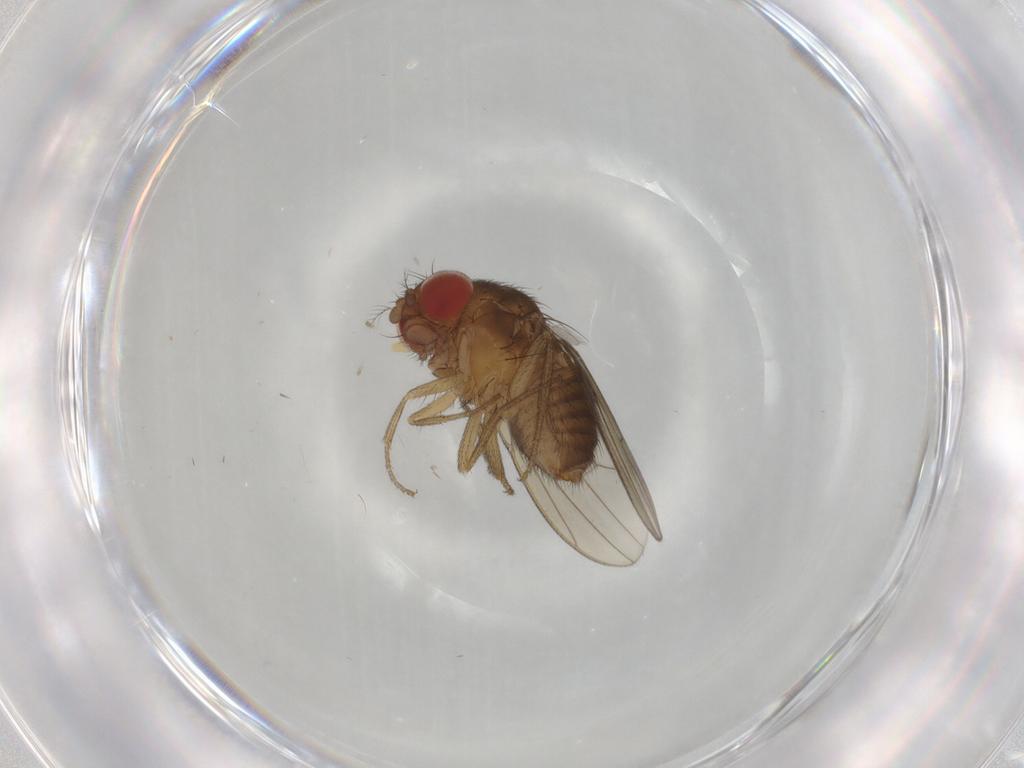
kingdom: Animalia
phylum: Arthropoda
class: Insecta
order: Diptera
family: Drosophilidae
